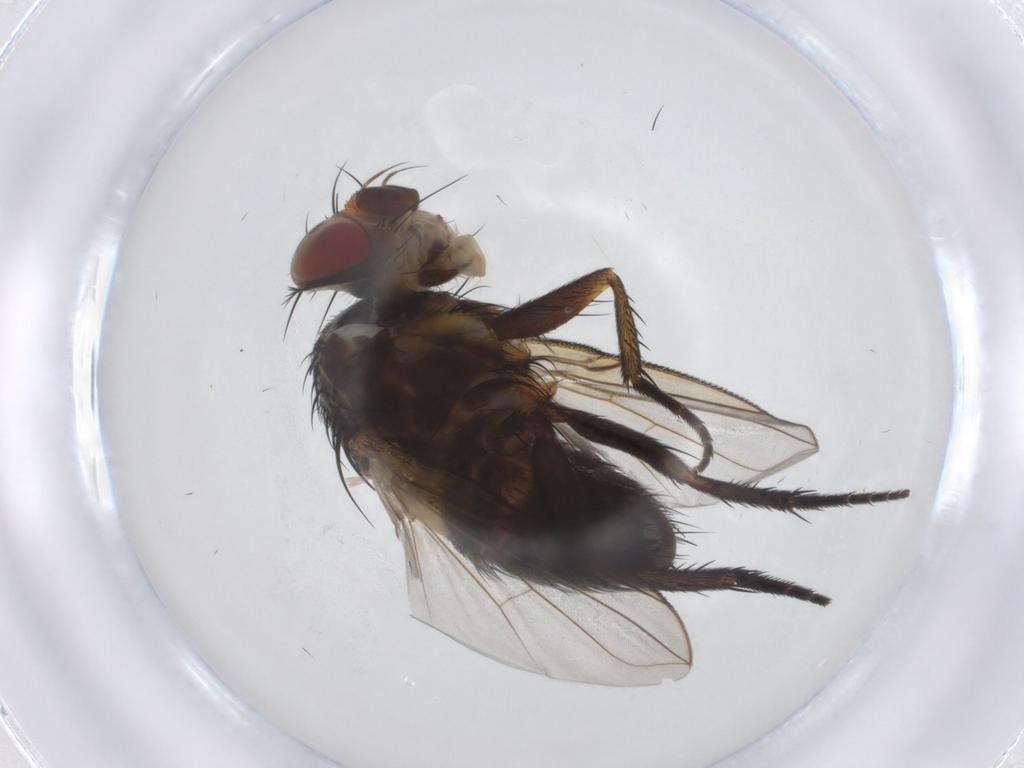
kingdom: Animalia
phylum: Arthropoda
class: Insecta
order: Diptera
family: Tachinidae
